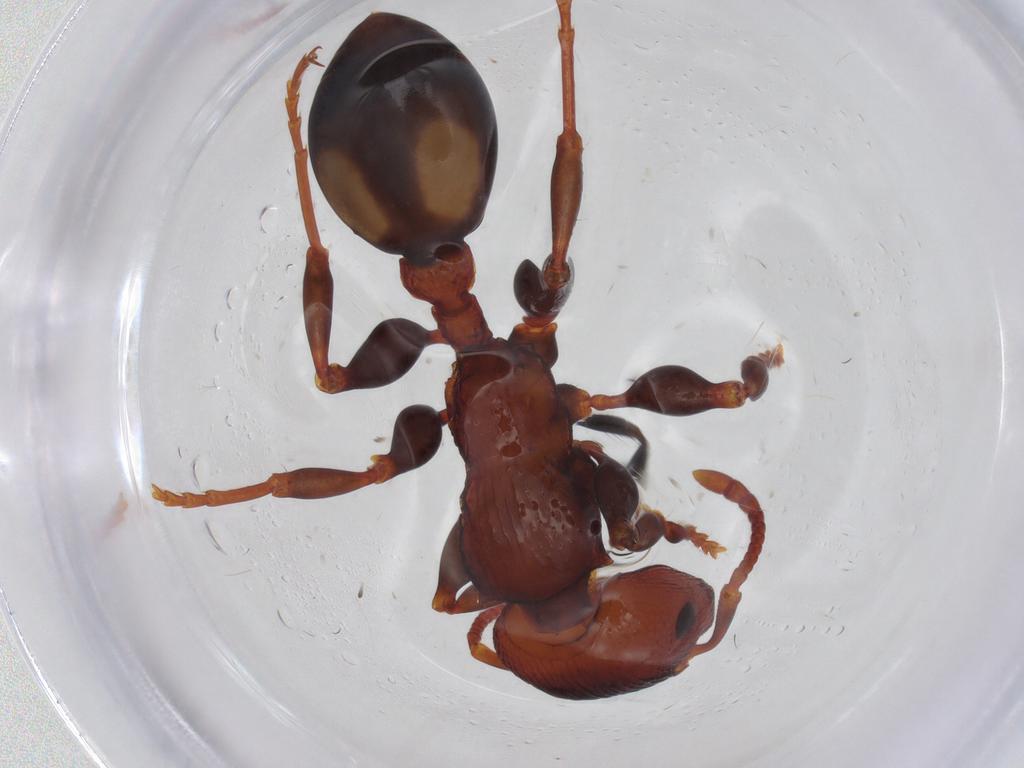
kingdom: Animalia
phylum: Arthropoda
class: Insecta
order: Hymenoptera
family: Formicidae
